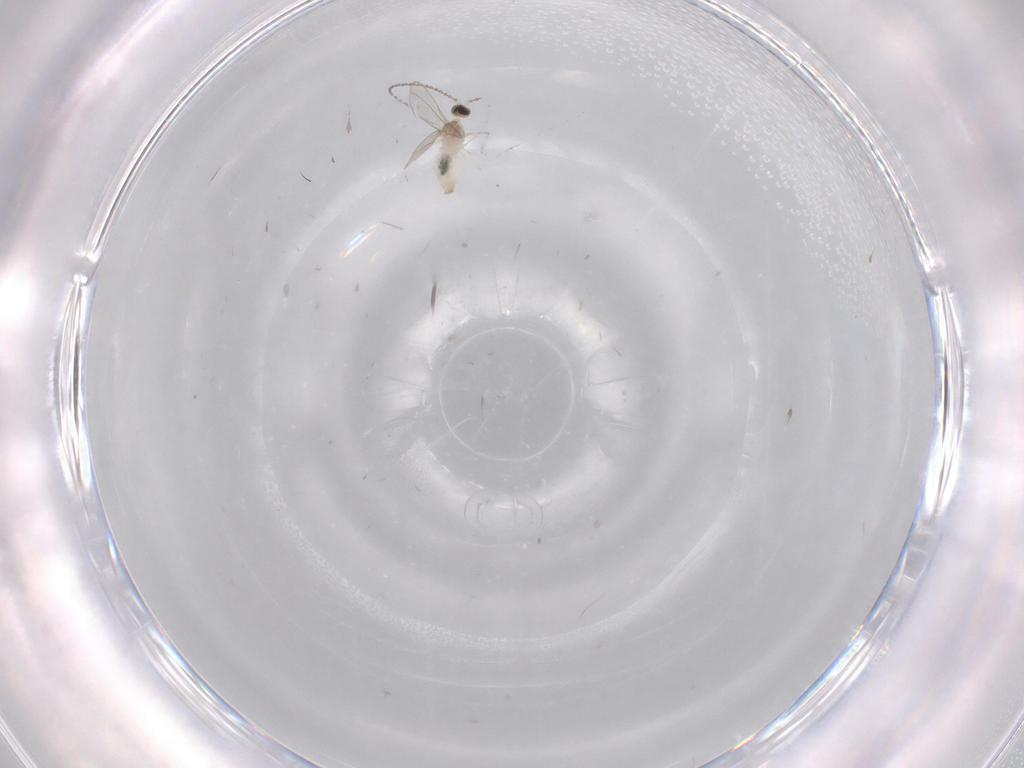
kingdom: Animalia
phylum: Arthropoda
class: Insecta
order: Diptera
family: Cecidomyiidae
